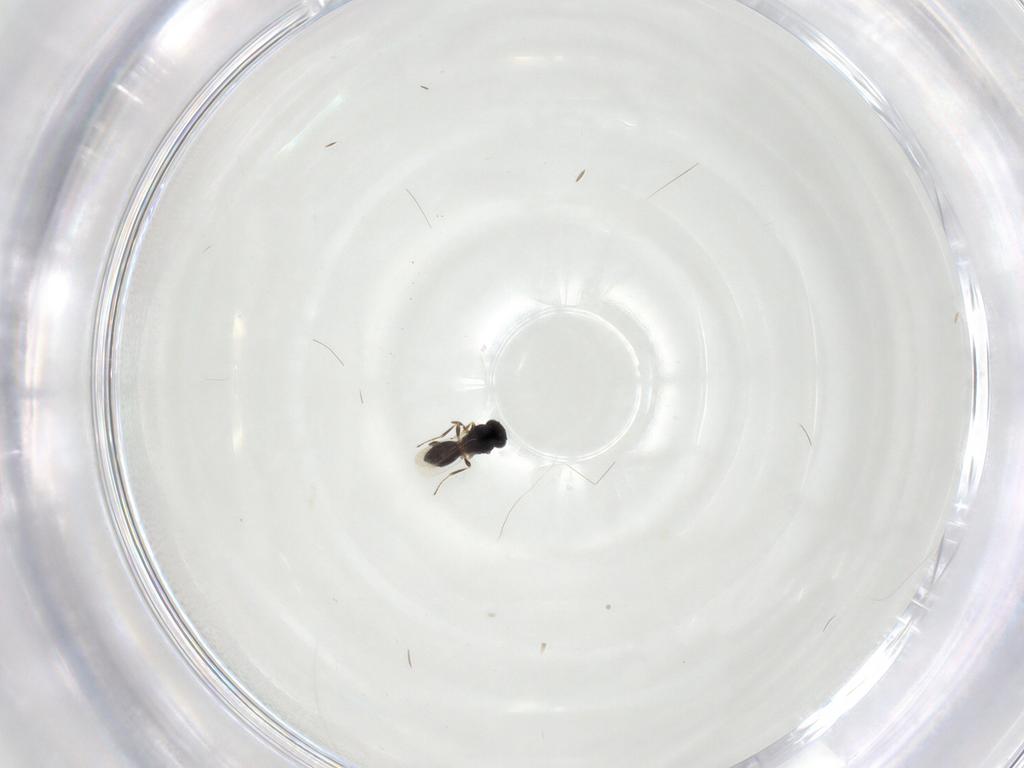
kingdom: Animalia
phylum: Arthropoda
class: Insecta
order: Hymenoptera
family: Platygastridae
